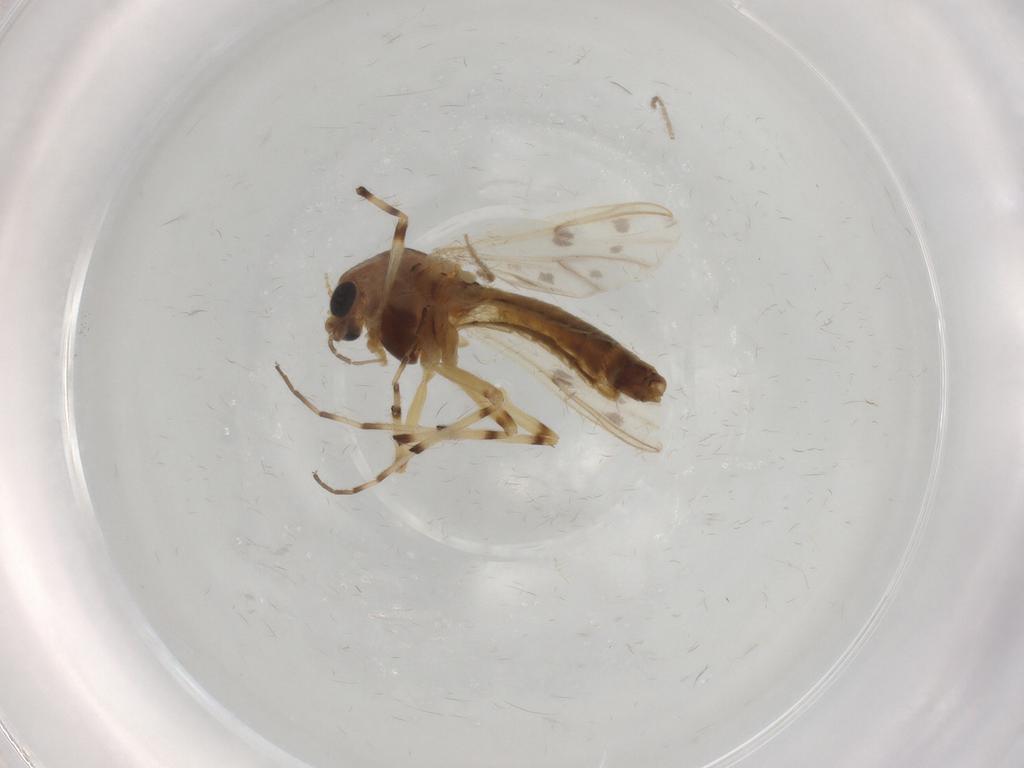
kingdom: Animalia
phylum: Arthropoda
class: Insecta
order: Diptera
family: Chironomidae
